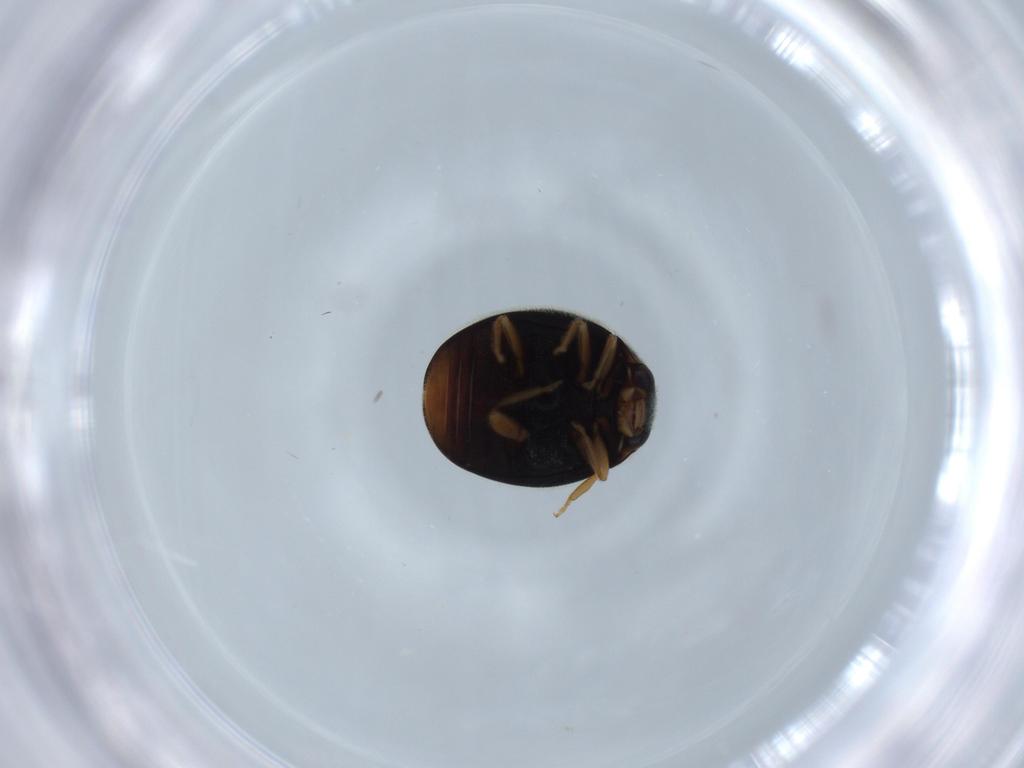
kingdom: Animalia
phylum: Arthropoda
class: Insecta
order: Coleoptera
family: Coccinellidae
